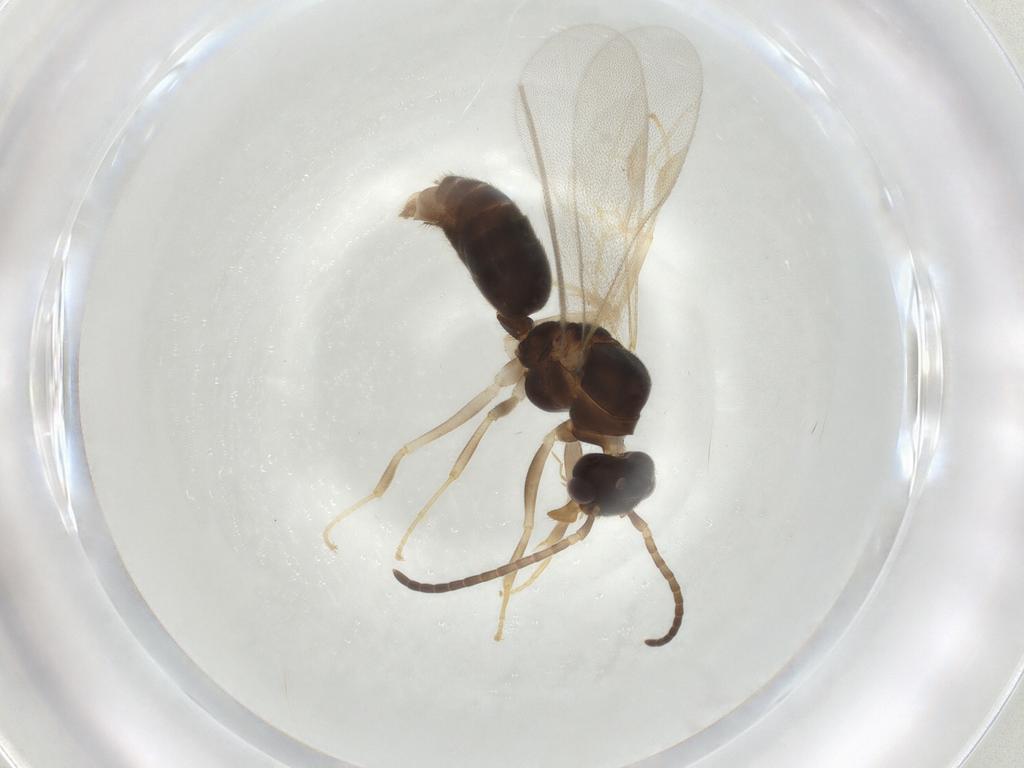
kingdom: Animalia
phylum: Arthropoda
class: Insecta
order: Hymenoptera
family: Formicidae
